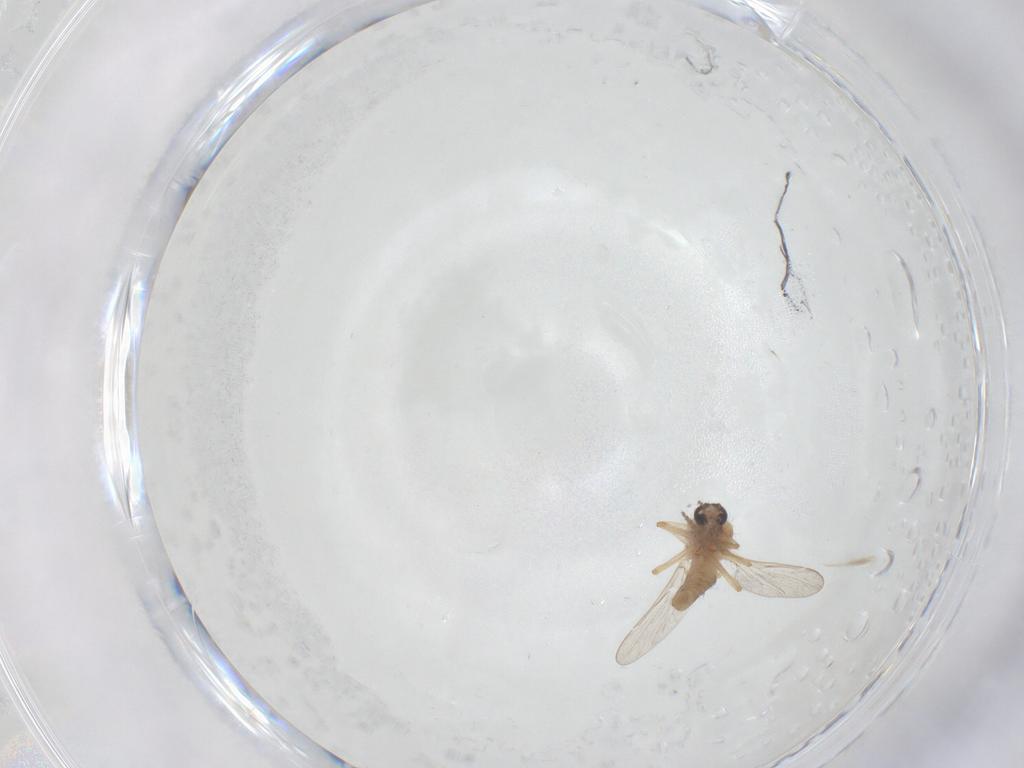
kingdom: Animalia
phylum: Arthropoda
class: Insecta
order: Diptera
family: Ceratopogonidae
